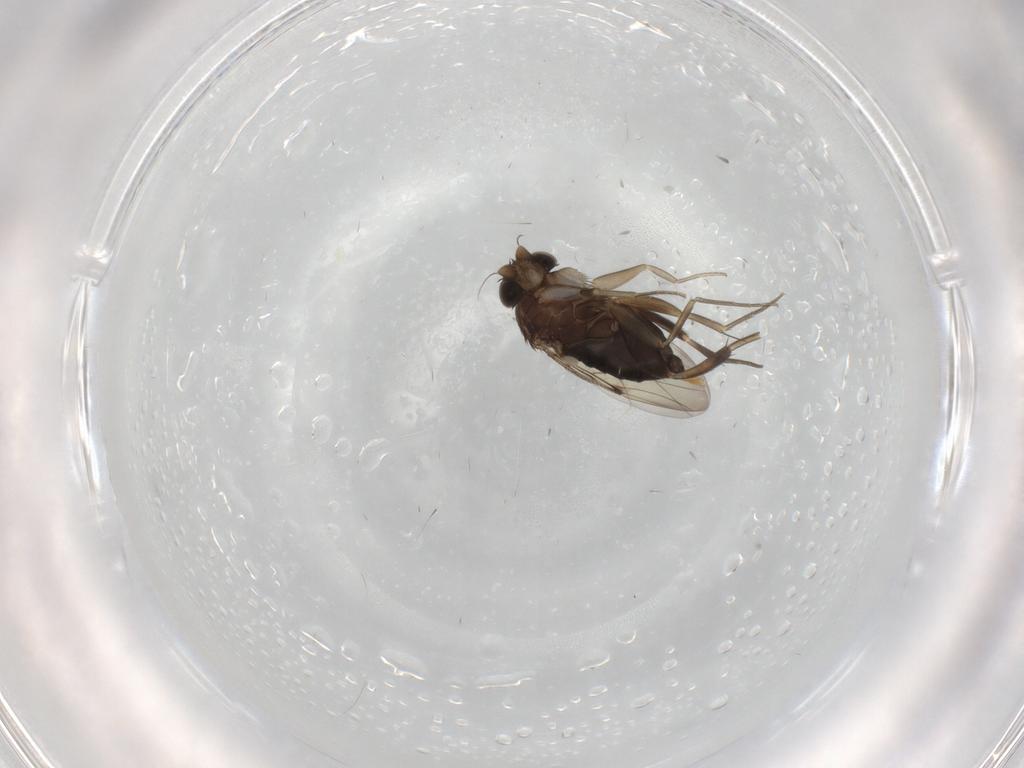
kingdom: Animalia
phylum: Arthropoda
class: Insecta
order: Diptera
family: Phoridae
